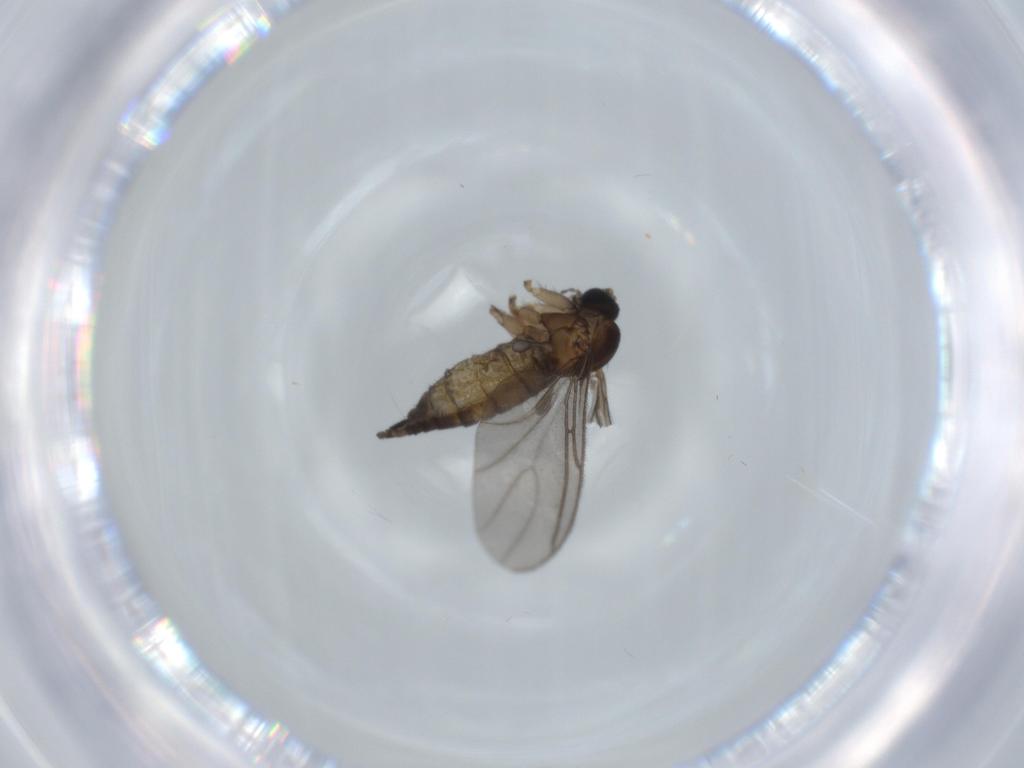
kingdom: Animalia
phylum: Arthropoda
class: Insecta
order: Diptera
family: Sciaridae
